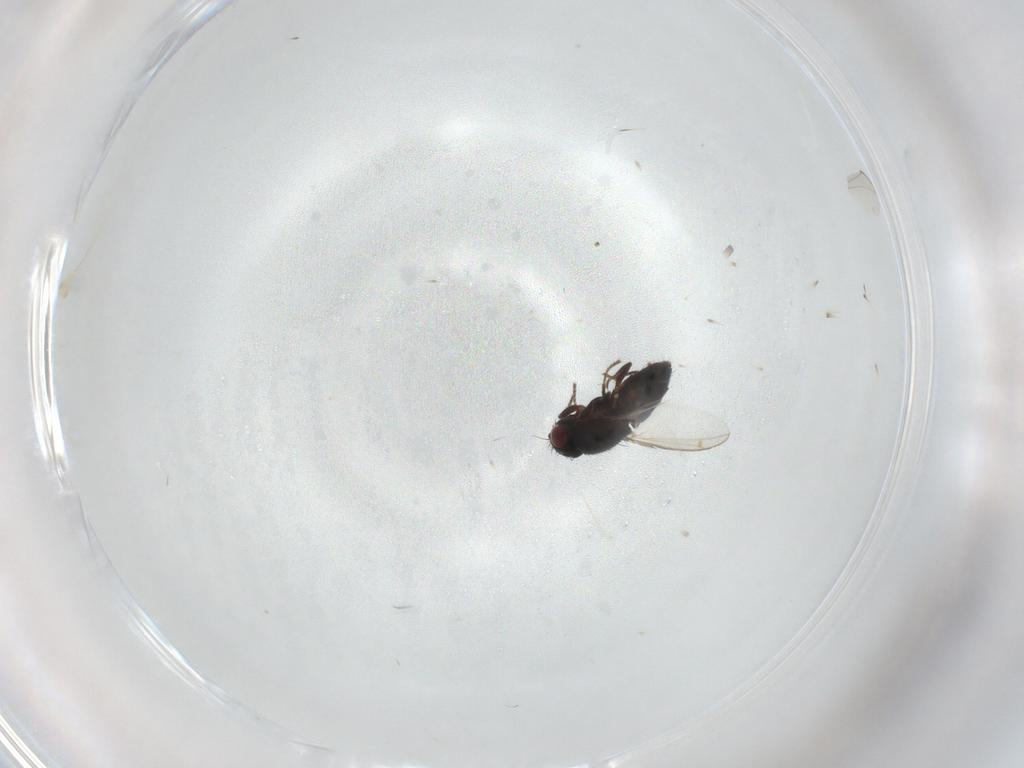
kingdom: Animalia
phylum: Arthropoda
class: Insecta
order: Diptera
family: Carnidae
